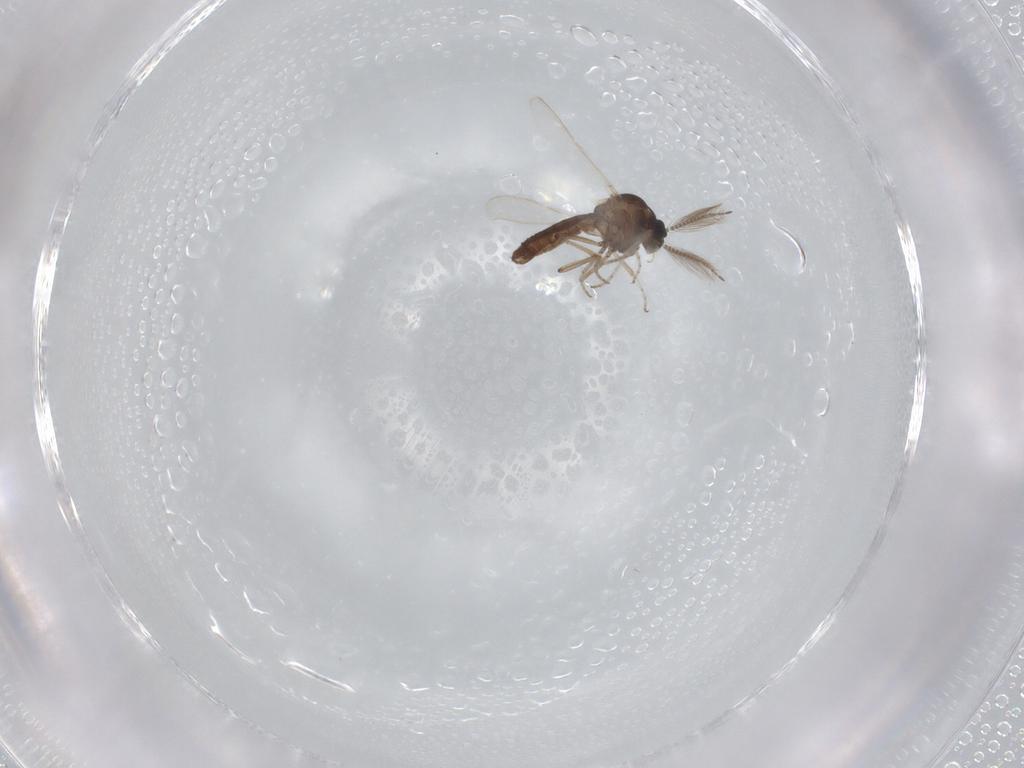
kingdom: Animalia
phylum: Arthropoda
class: Insecta
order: Diptera
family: Ceratopogonidae
